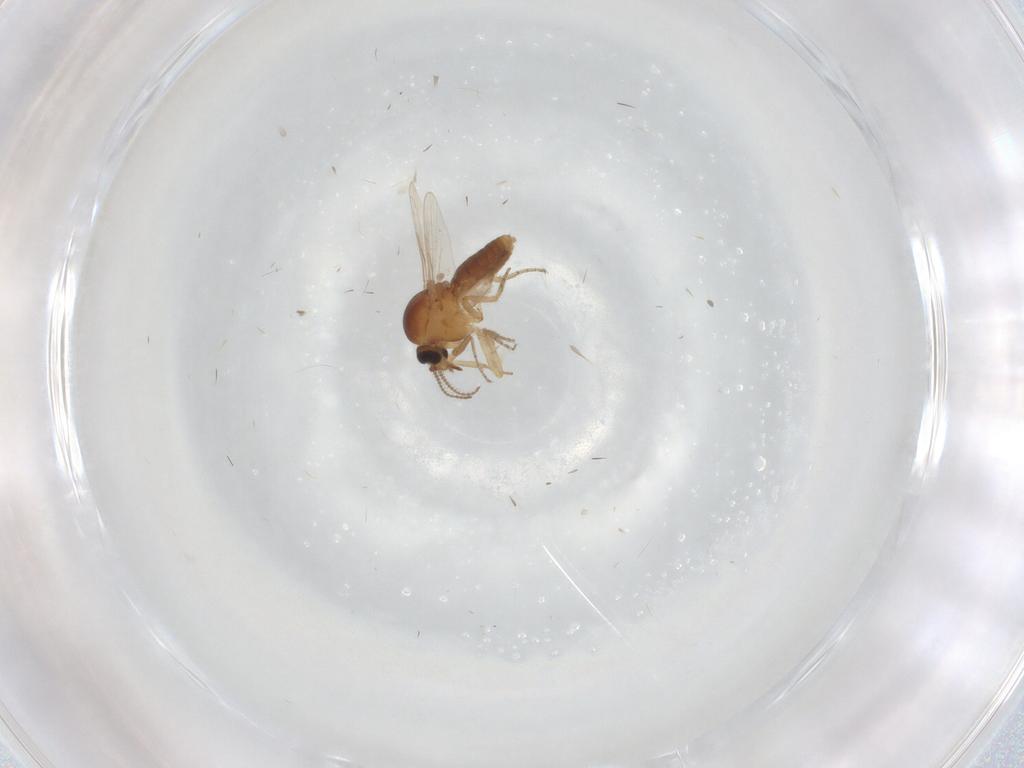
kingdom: Animalia
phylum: Arthropoda
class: Insecta
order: Diptera
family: Ceratopogonidae
